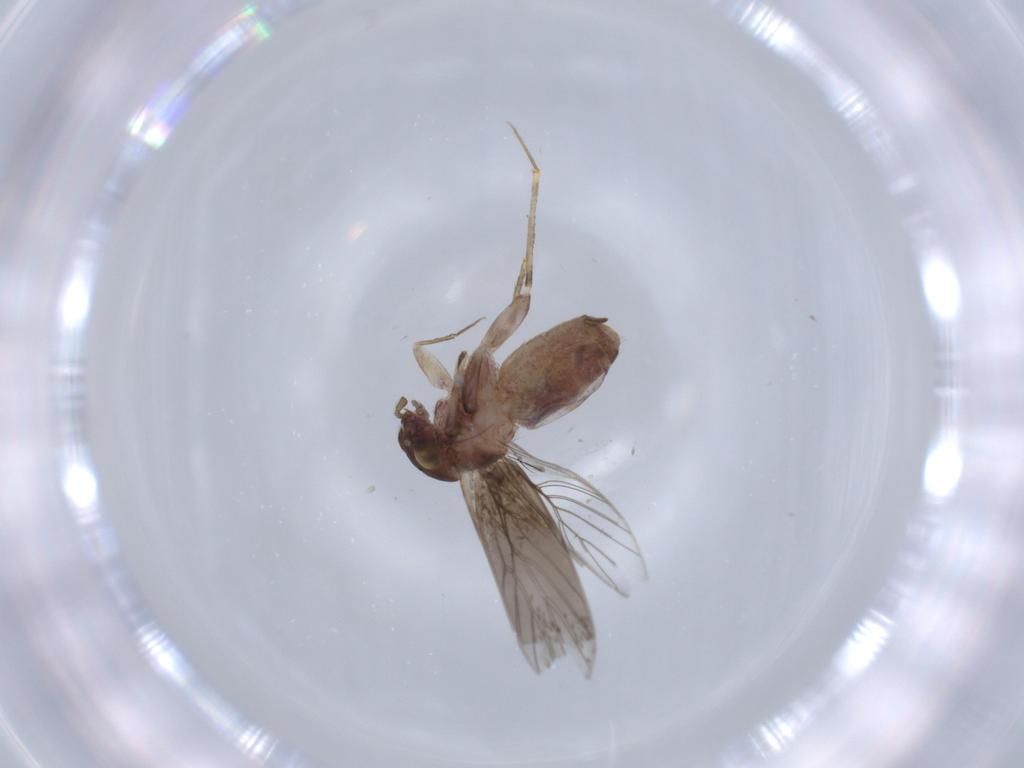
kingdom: Animalia
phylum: Arthropoda
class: Insecta
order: Psocodea
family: Lepidopsocidae
